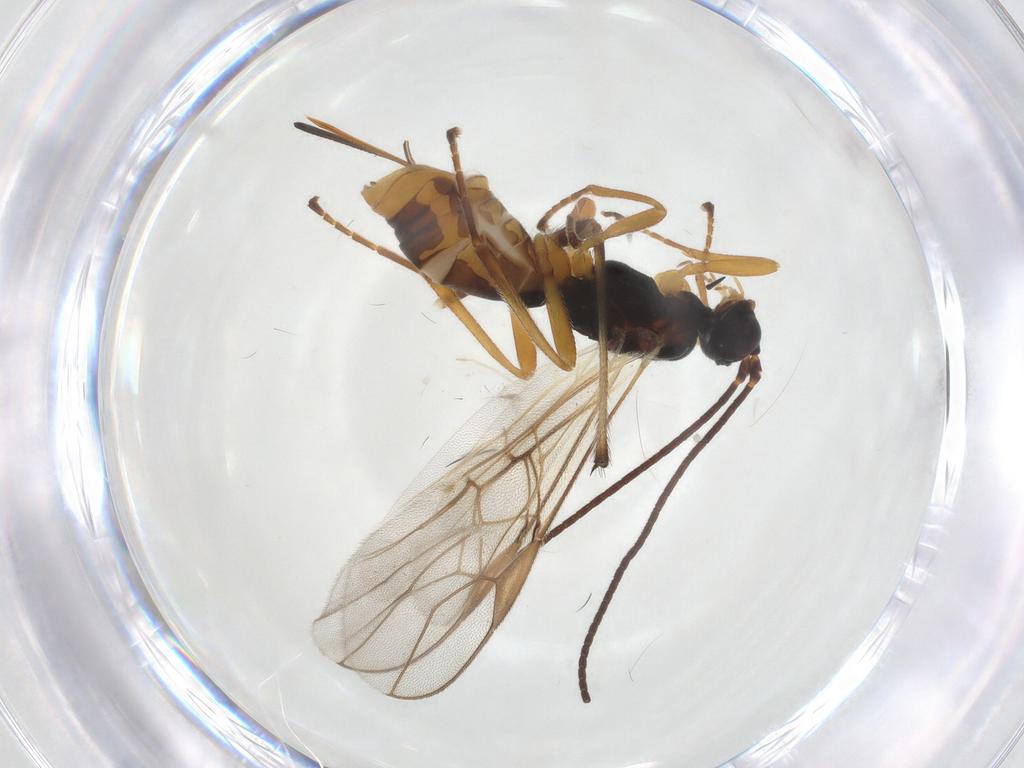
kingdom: Animalia
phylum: Arthropoda
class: Insecta
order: Hymenoptera
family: Braconidae
